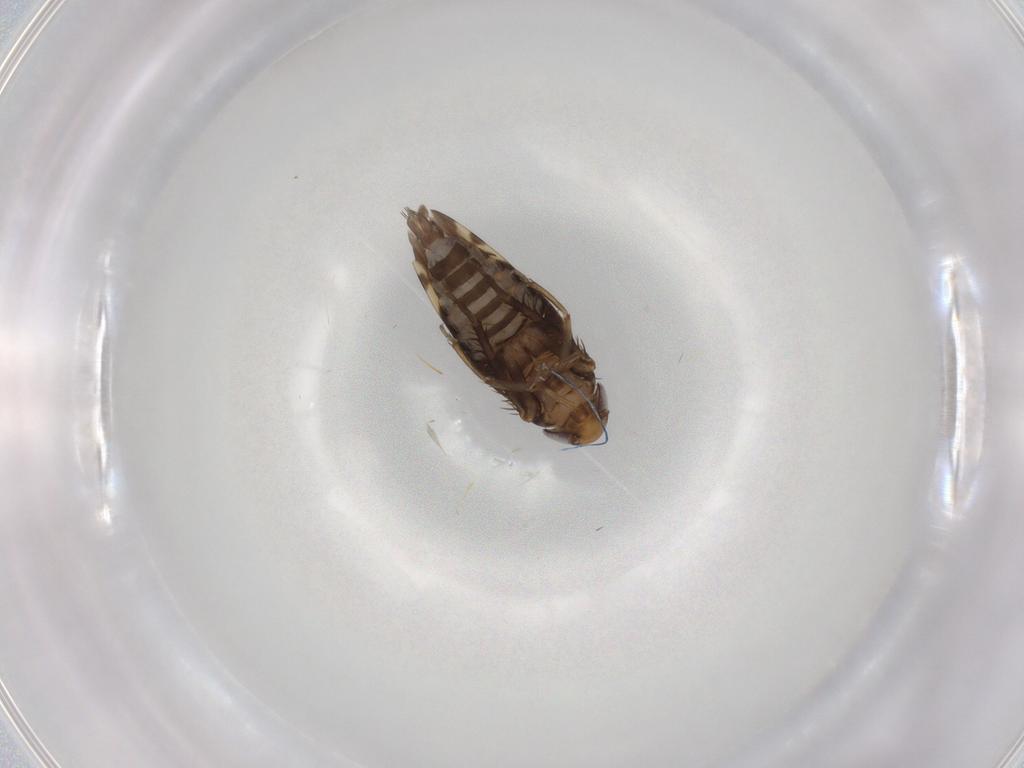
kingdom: Animalia
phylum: Arthropoda
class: Insecta
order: Hemiptera
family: Cicadellidae
